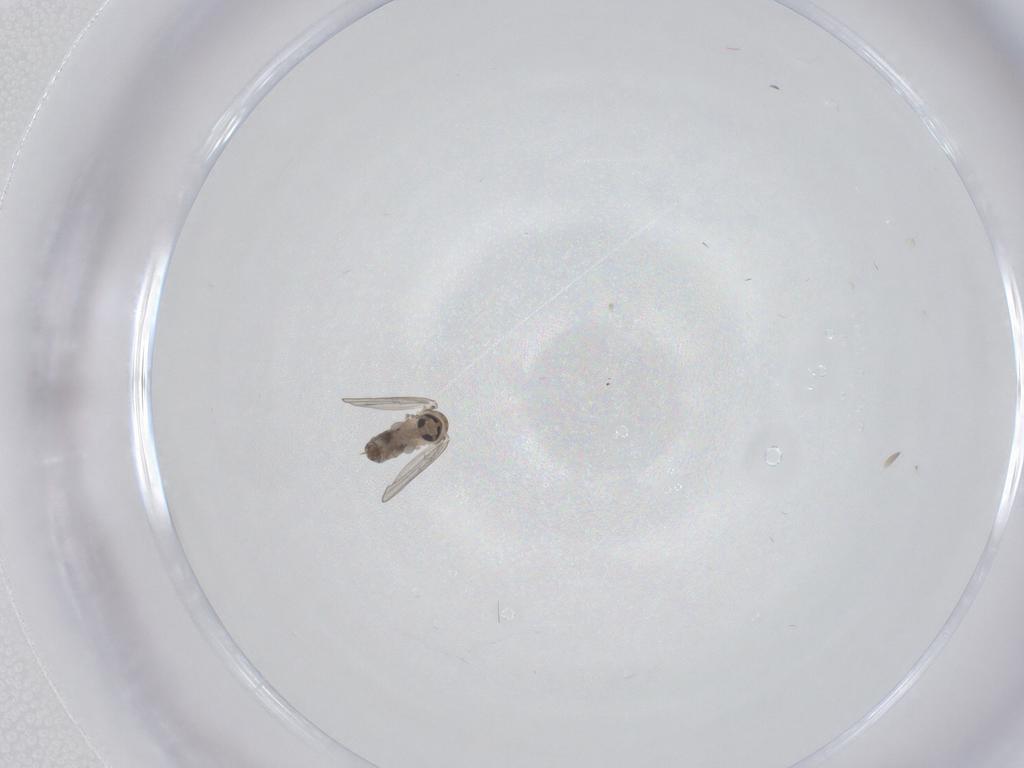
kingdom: Animalia
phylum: Arthropoda
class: Insecta
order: Diptera
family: Psychodidae
